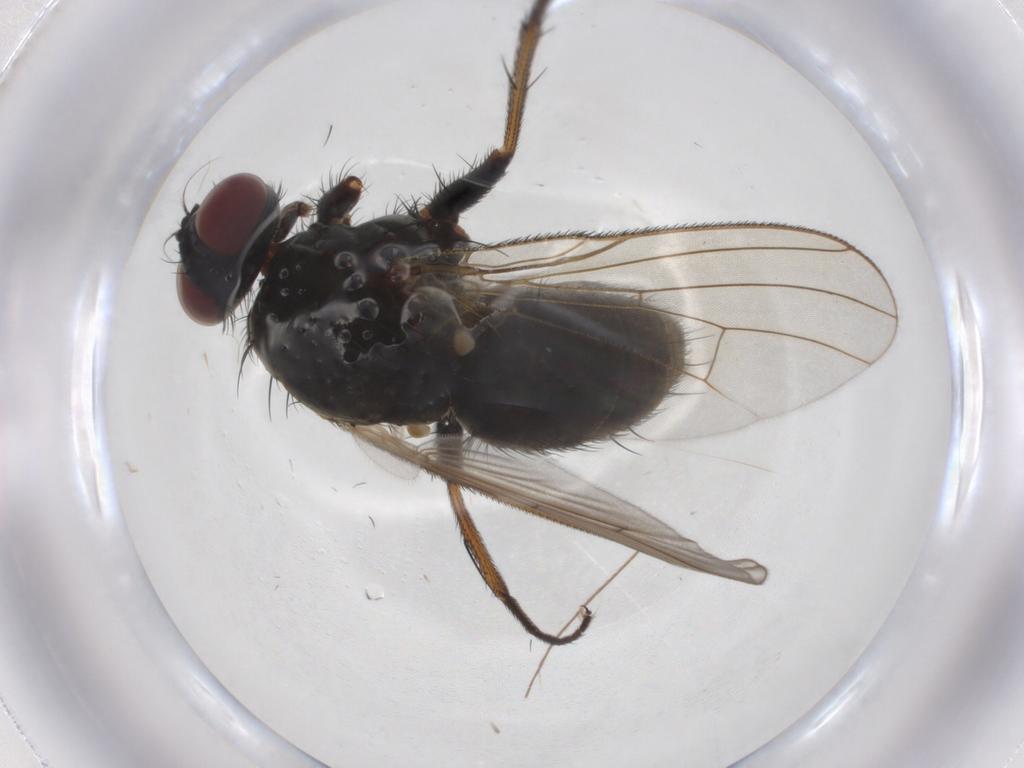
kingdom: Animalia
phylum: Arthropoda
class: Insecta
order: Diptera
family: Muscidae
